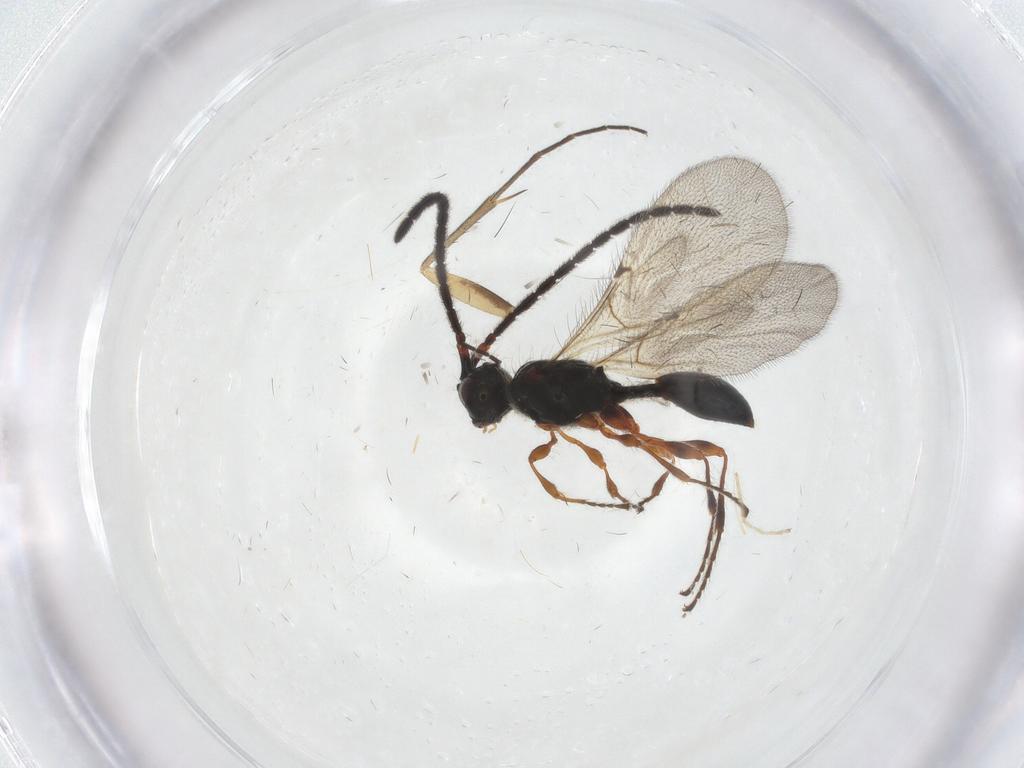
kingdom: Animalia
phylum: Arthropoda
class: Insecta
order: Hymenoptera
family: Diapriidae
